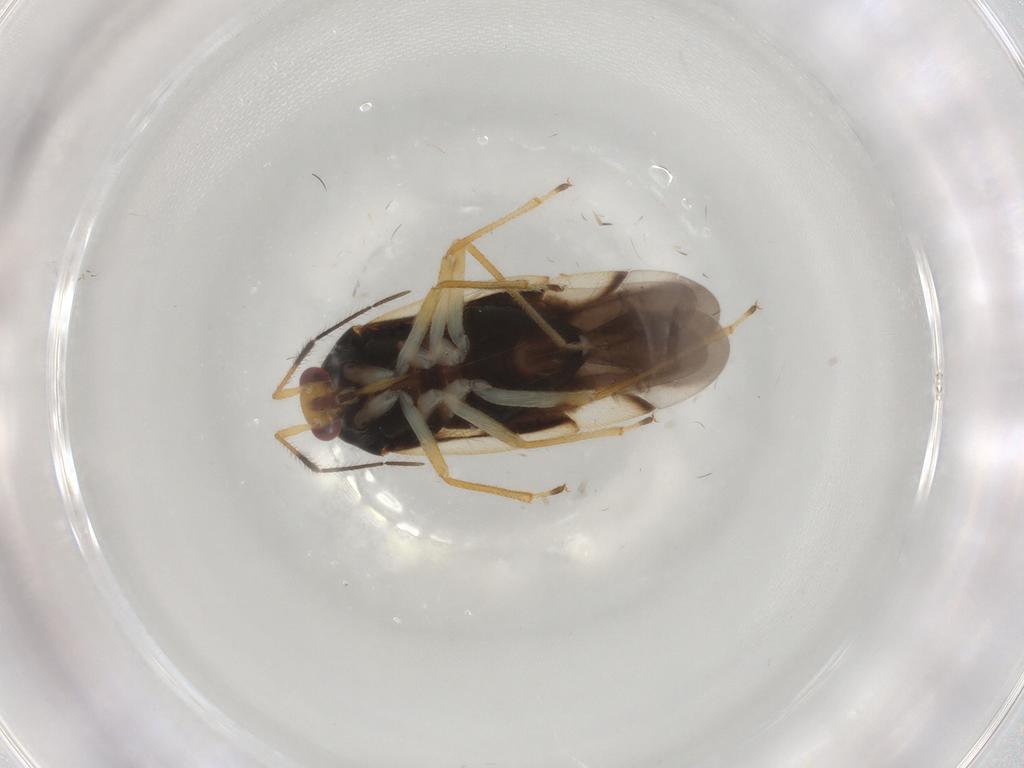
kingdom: Animalia
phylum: Arthropoda
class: Insecta
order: Hemiptera
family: Miridae
